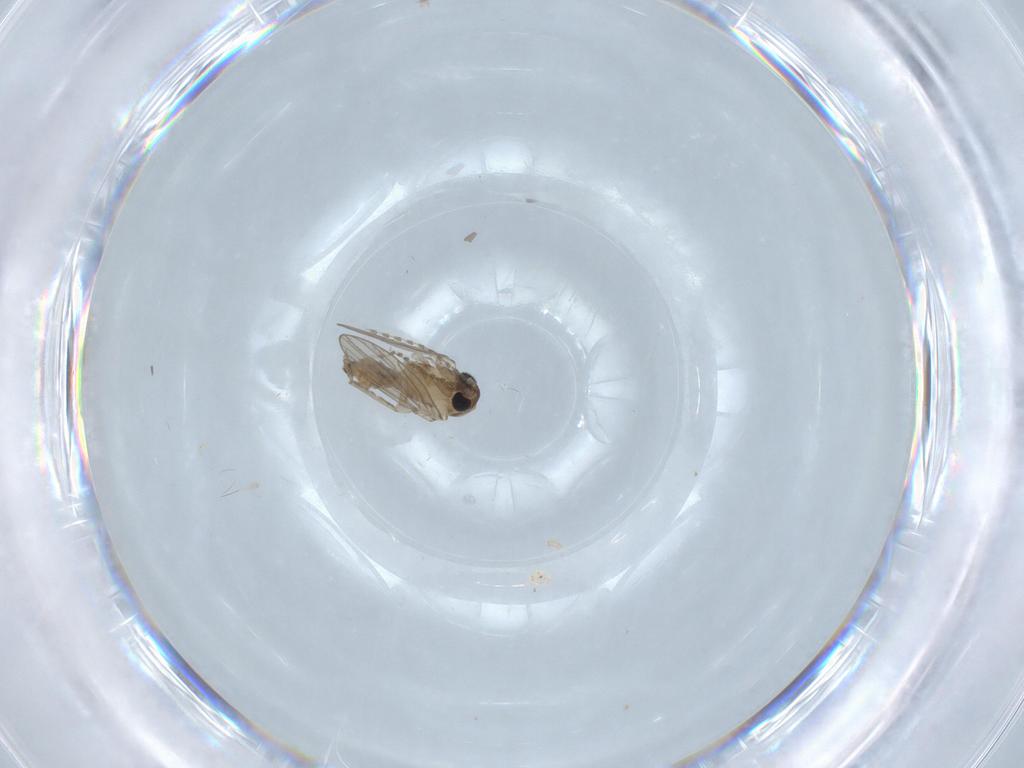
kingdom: Animalia
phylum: Arthropoda
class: Insecta
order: Diptera
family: Psychodidae
